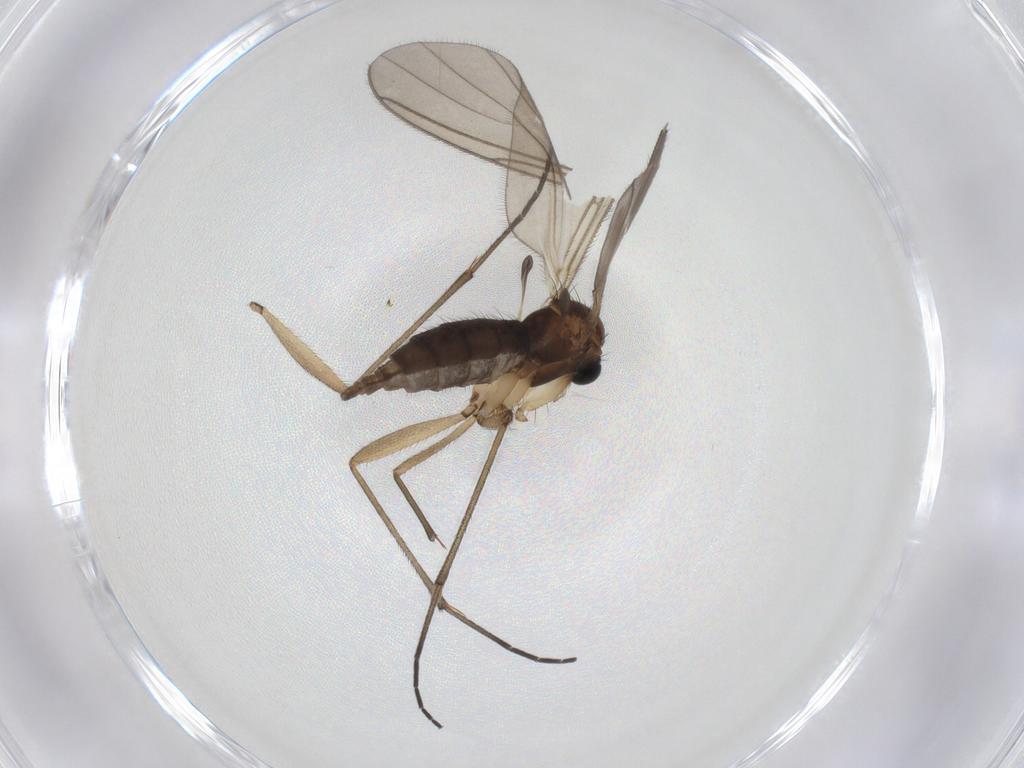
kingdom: Animalia
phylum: Arthropoda
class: Insecta
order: Diptera
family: Sciaridae
